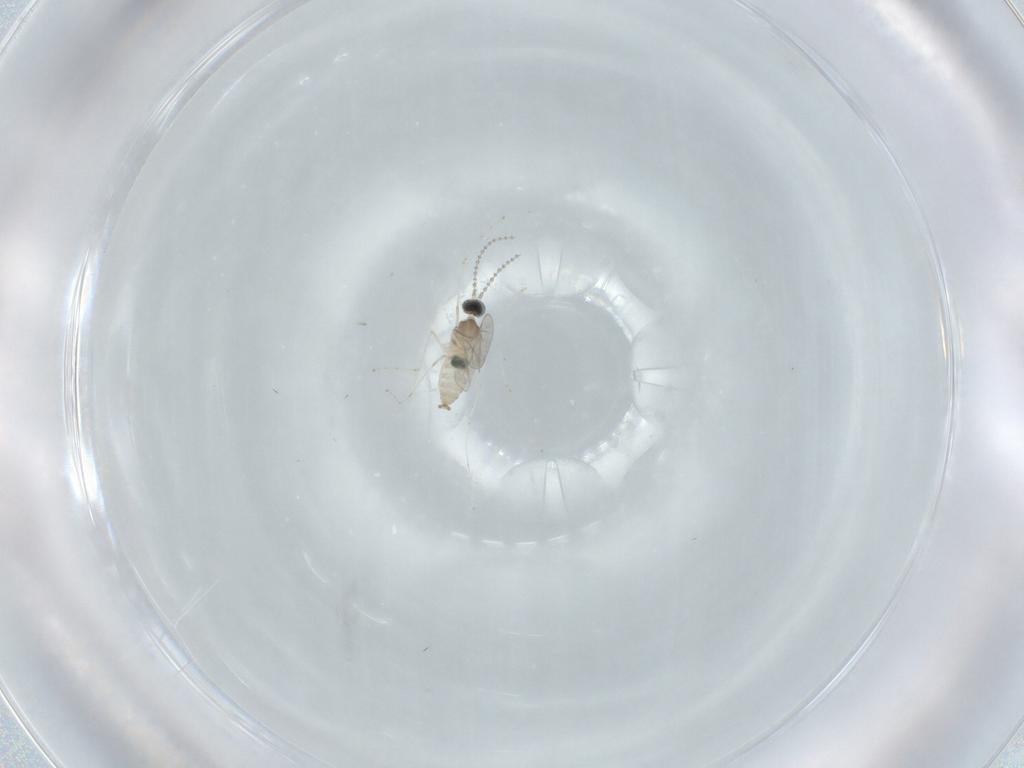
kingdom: Animalia
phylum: Arthropoda
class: Insecta
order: Diptera
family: Cecidomyiidae
